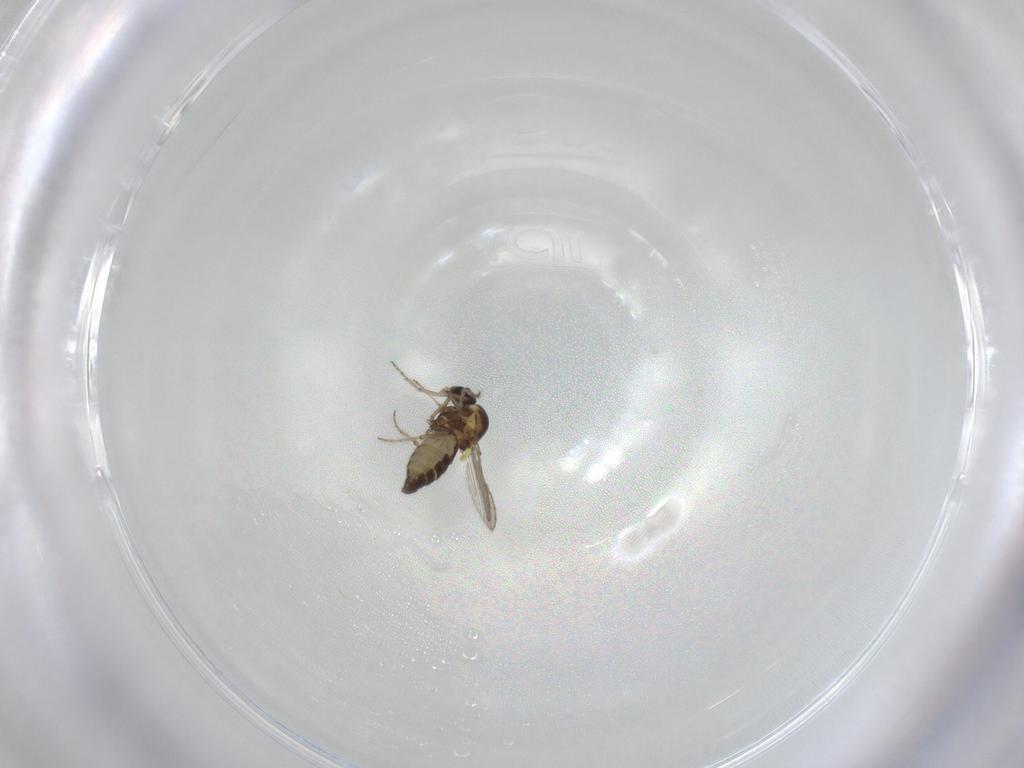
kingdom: Animalia
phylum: Arthropoda
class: Insecta
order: Diptera
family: Ceratopogonidae
